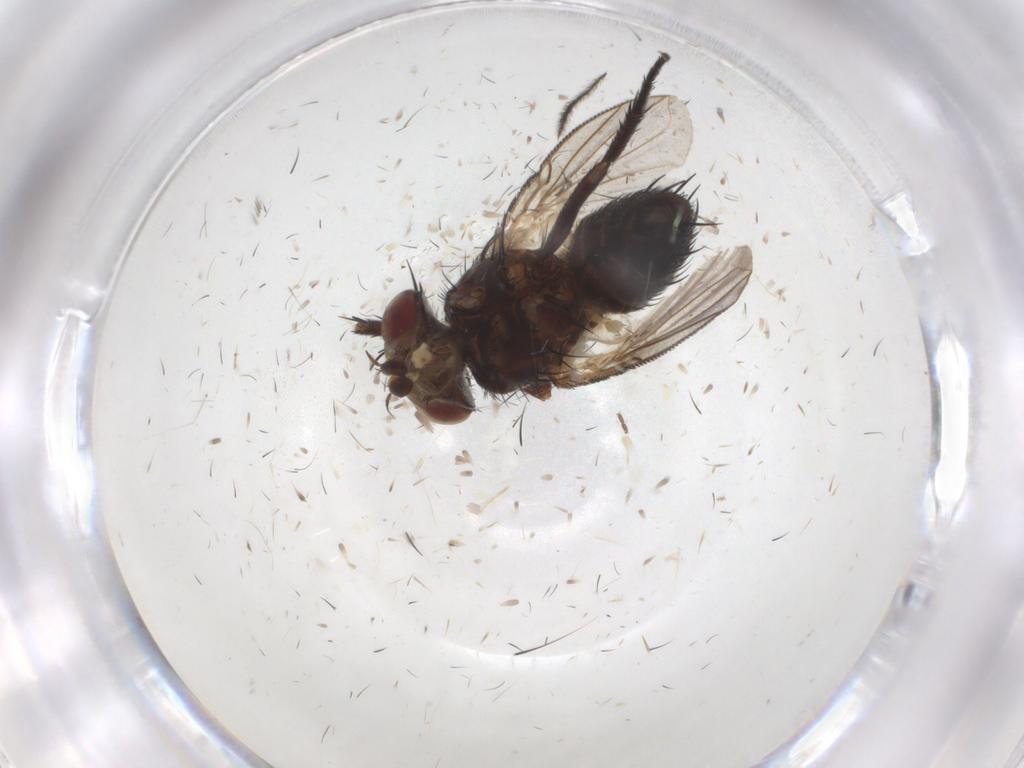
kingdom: Animalia
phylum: Arthropoda
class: Insecta
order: Diptera
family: Tachinidae
